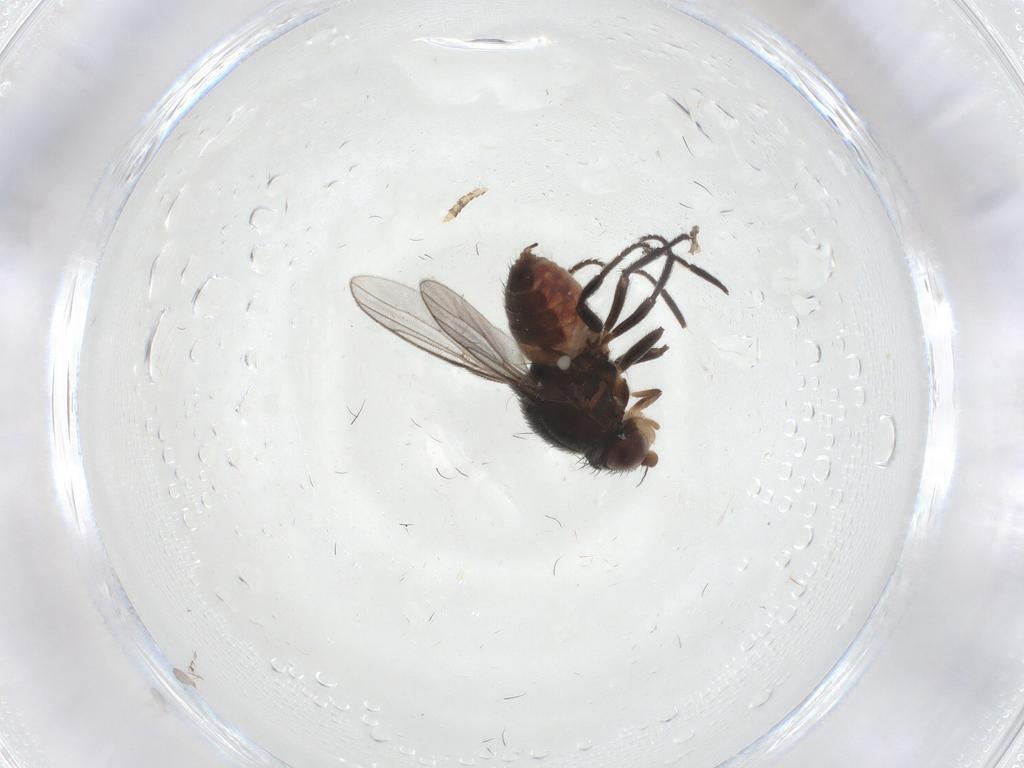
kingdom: Animalia
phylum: Arthropoda
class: Insecta
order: Diptera
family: Chloropidae
